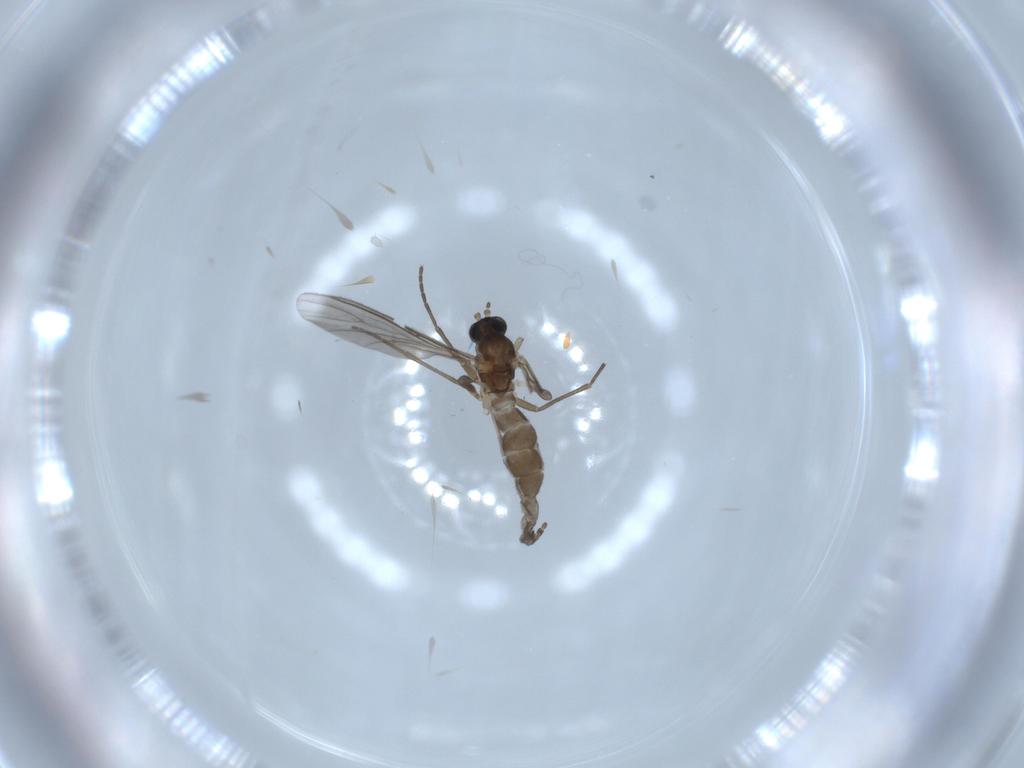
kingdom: Animalia
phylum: Arthropoda
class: Insecta
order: Diptera
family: Sciaridae
